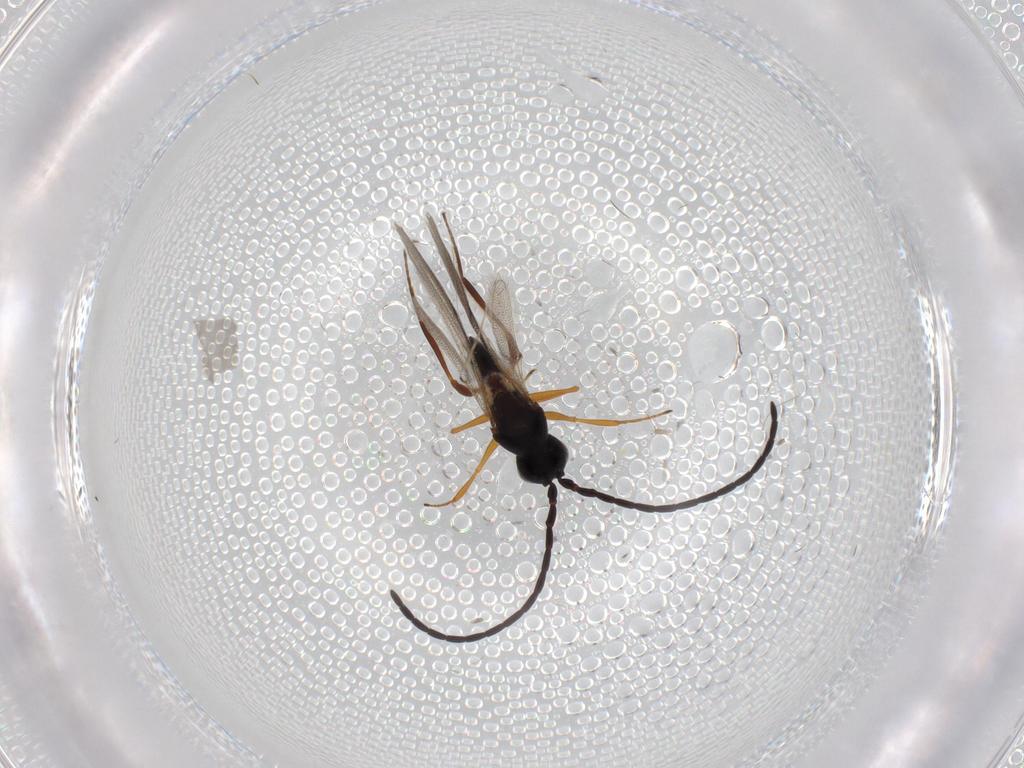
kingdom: Animalia
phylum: Arthropoda
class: Insecta
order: Hymenoptera
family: Figitidae
